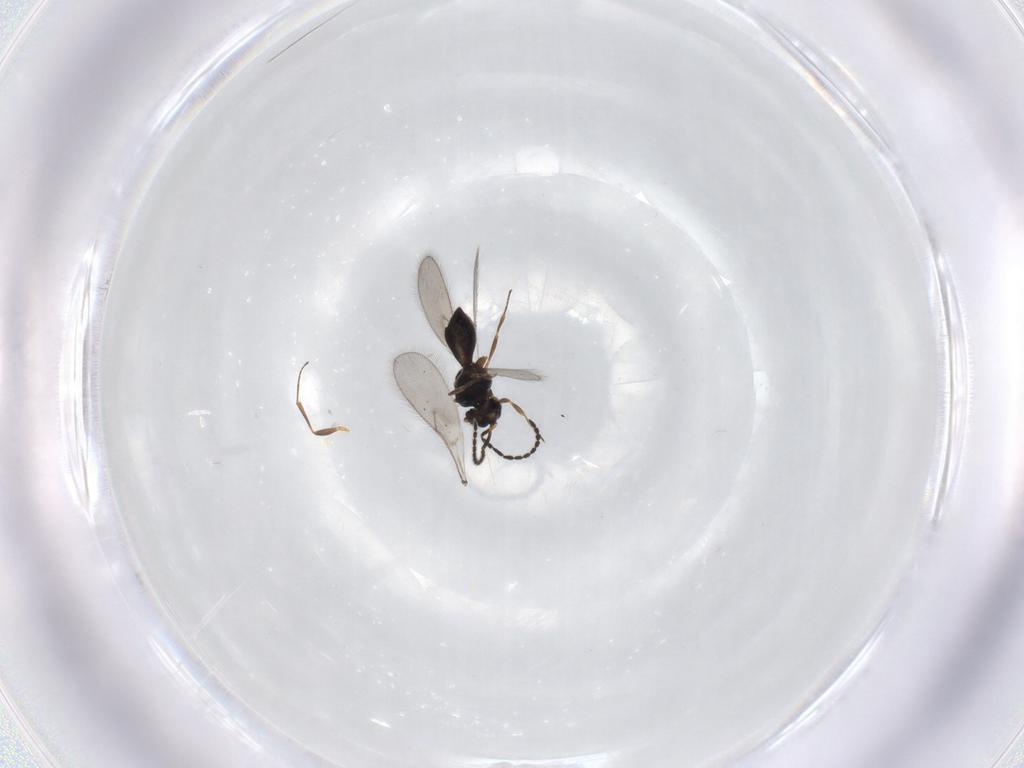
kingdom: Animalia
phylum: Arthropoda
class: Insecta
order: Hymenoptera
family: Scelionidae
